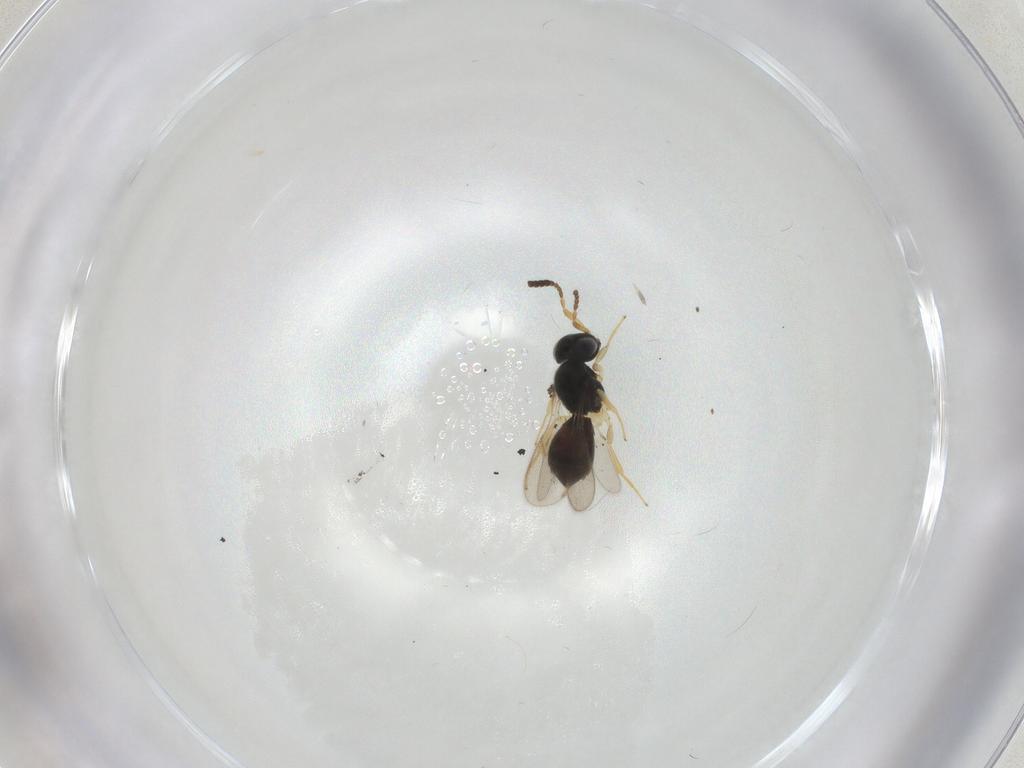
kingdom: Animalia
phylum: Arthropoda
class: Insecta
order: Hymenoptera
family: Scelionidae
